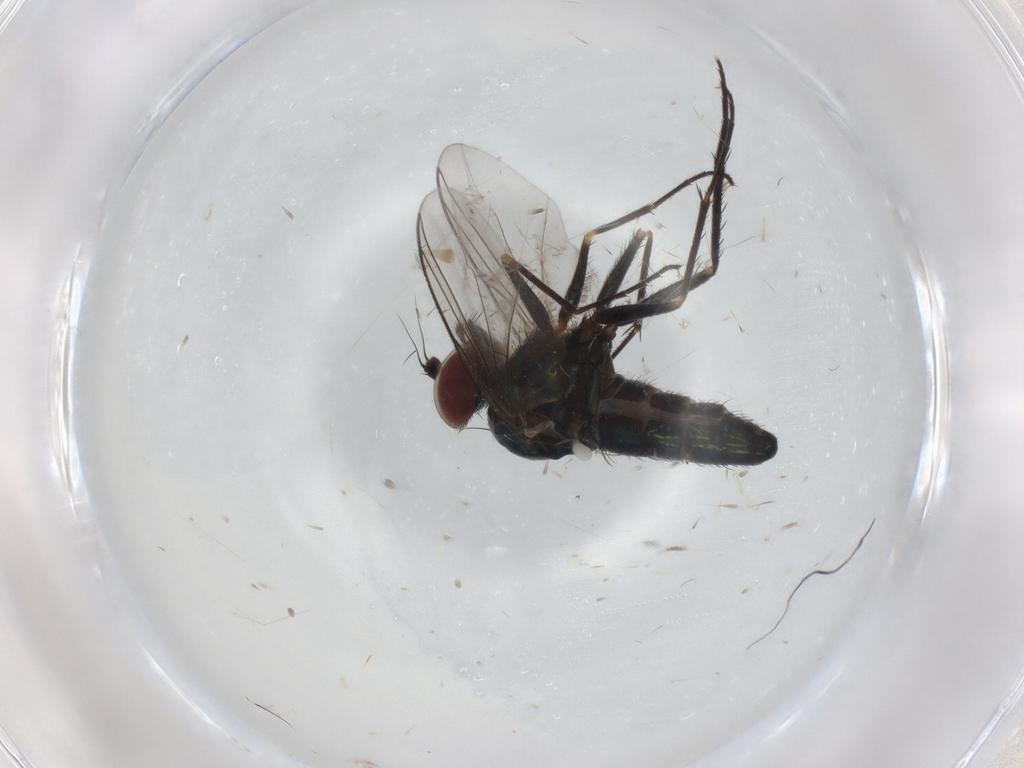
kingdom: Animalia
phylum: Arthropoda
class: Insecta
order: Diptera
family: Dolichopodidae
